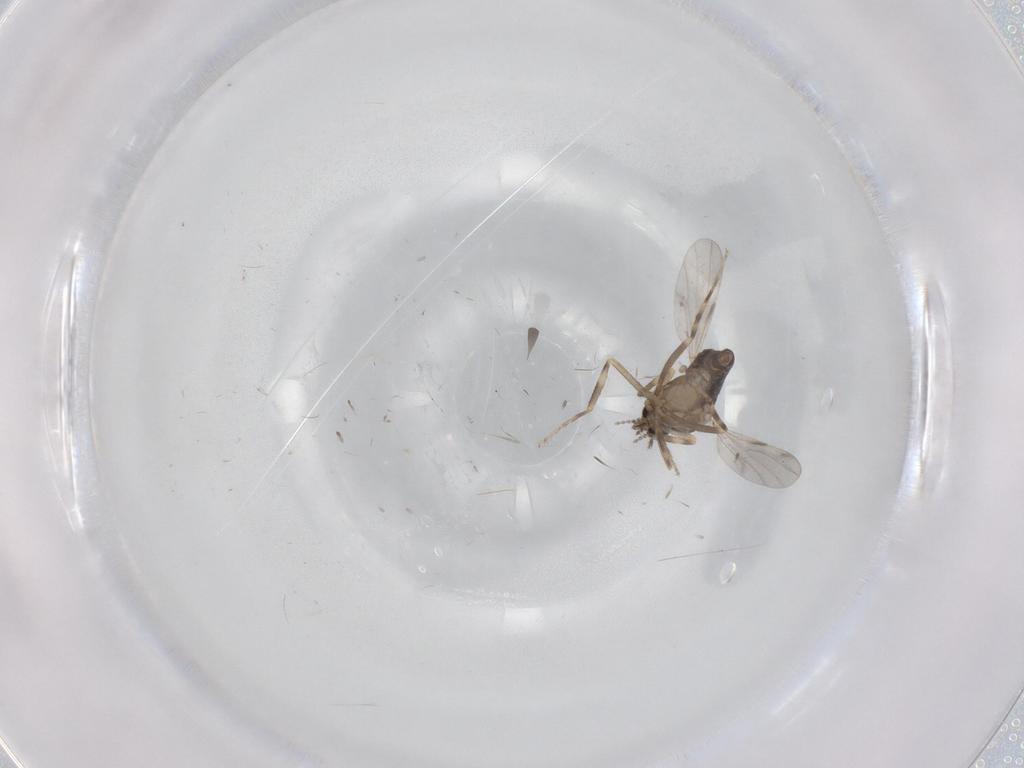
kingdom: Animalia
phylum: Arthropoda
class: Insecta
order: Diptera
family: Ceratopogonidae
